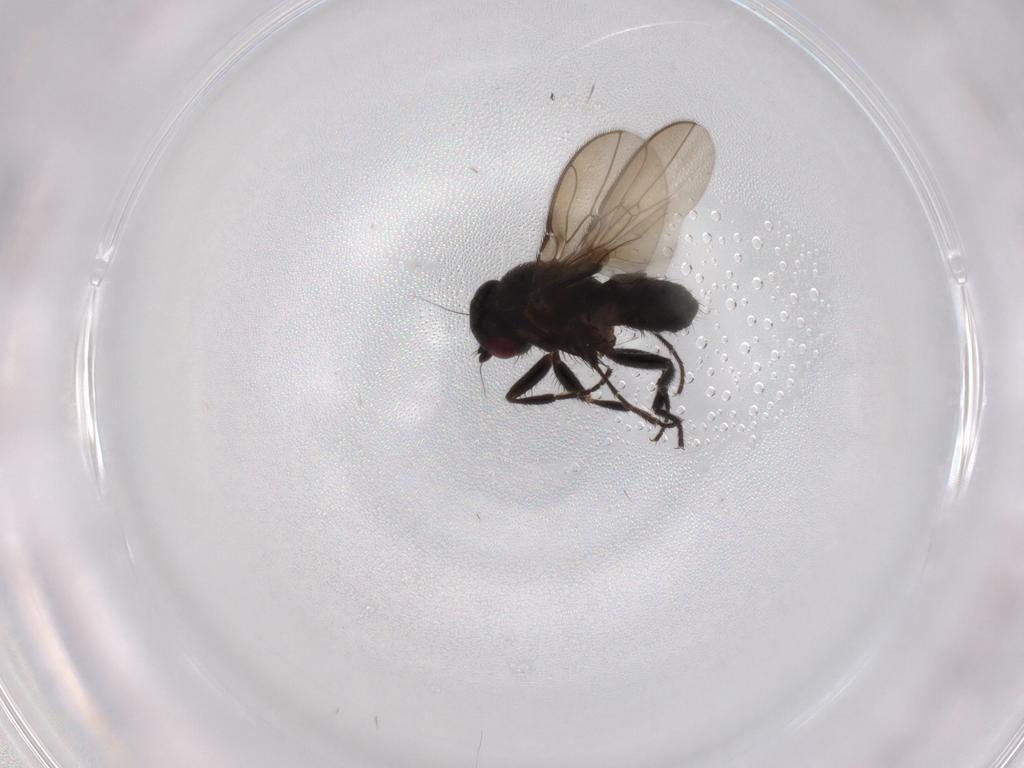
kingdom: Animalia
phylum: Arthropoda
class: Insecta
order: Diptera
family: Sphaeroceridae
